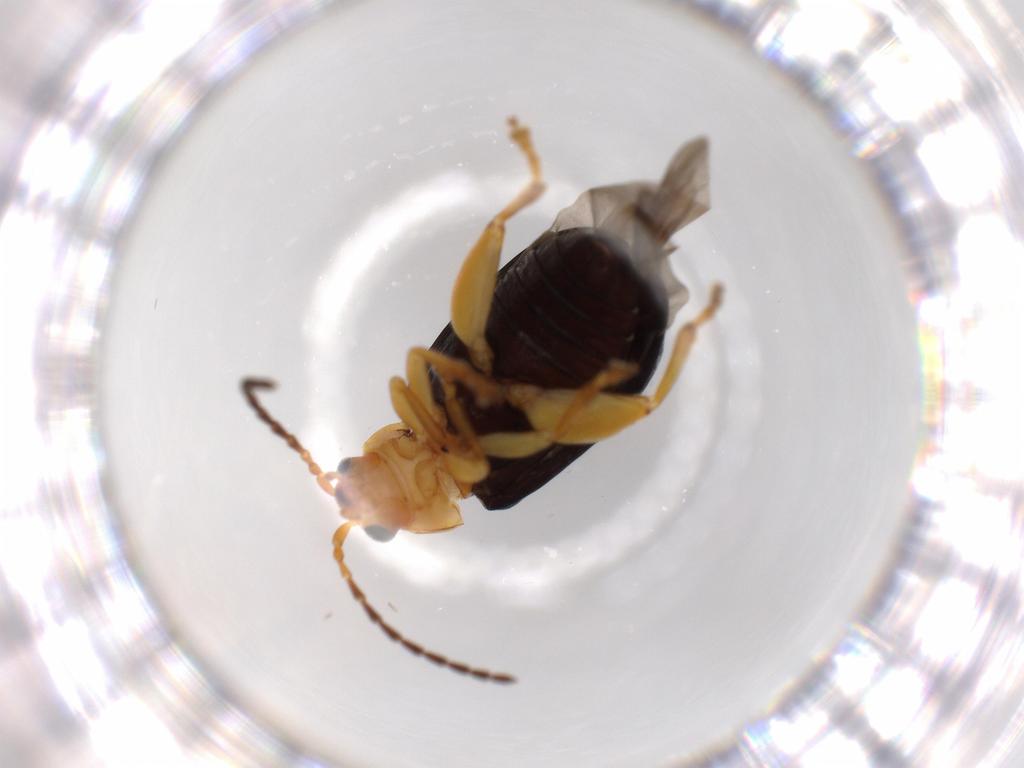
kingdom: Animalia
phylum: Arthropoda
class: Insecta
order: Coleoptera
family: Chrysomelidae
